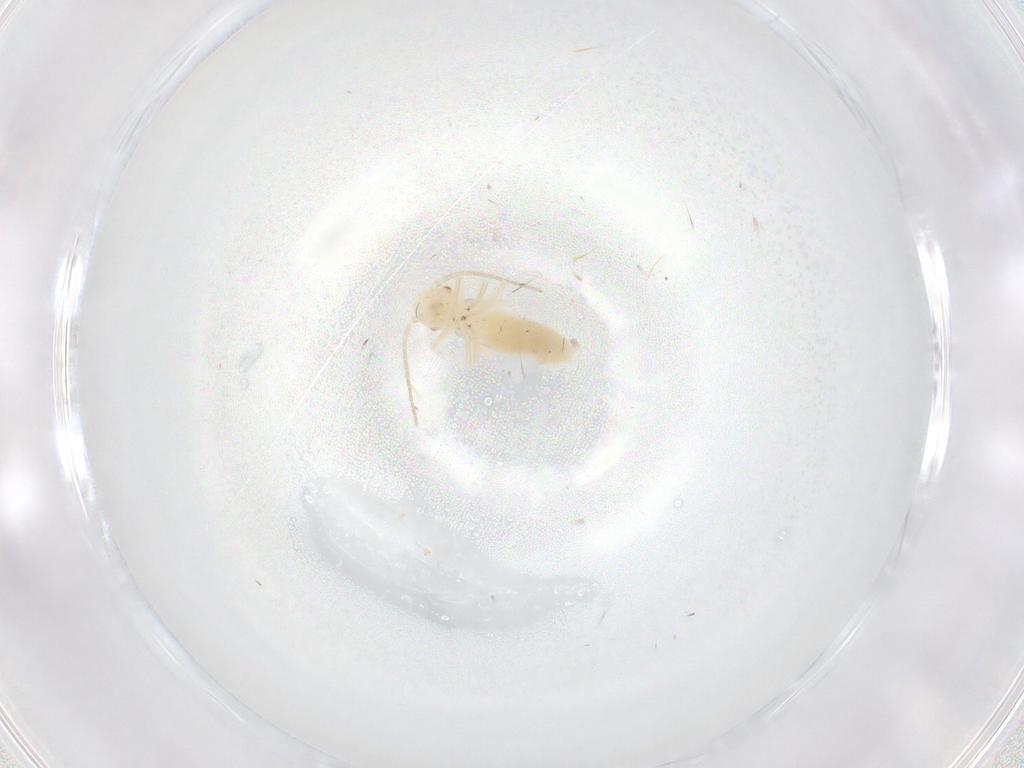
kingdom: Animalia
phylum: Arthropoda
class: Insecta
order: Psocodea
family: Caeciliusidae
